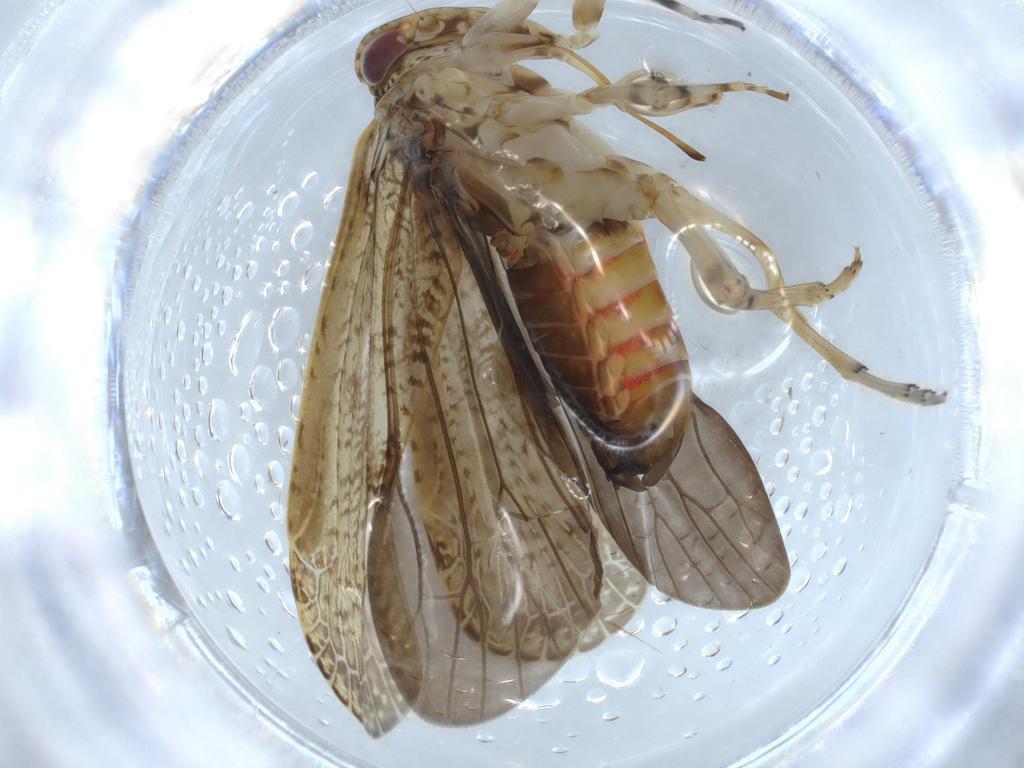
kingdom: Animalia
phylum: Arthropoda
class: Insecta
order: Hemiptera
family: Cicadellidae
